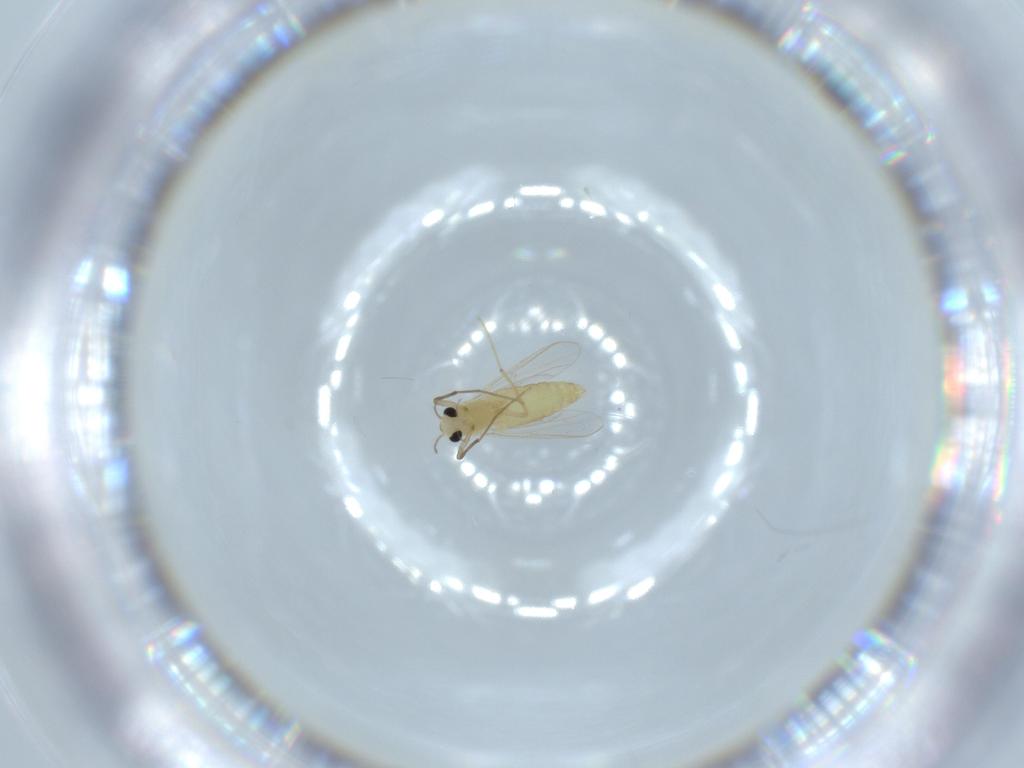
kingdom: Animalia
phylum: Arthropoda
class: Insecta
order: Diptera
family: Chironomidae
